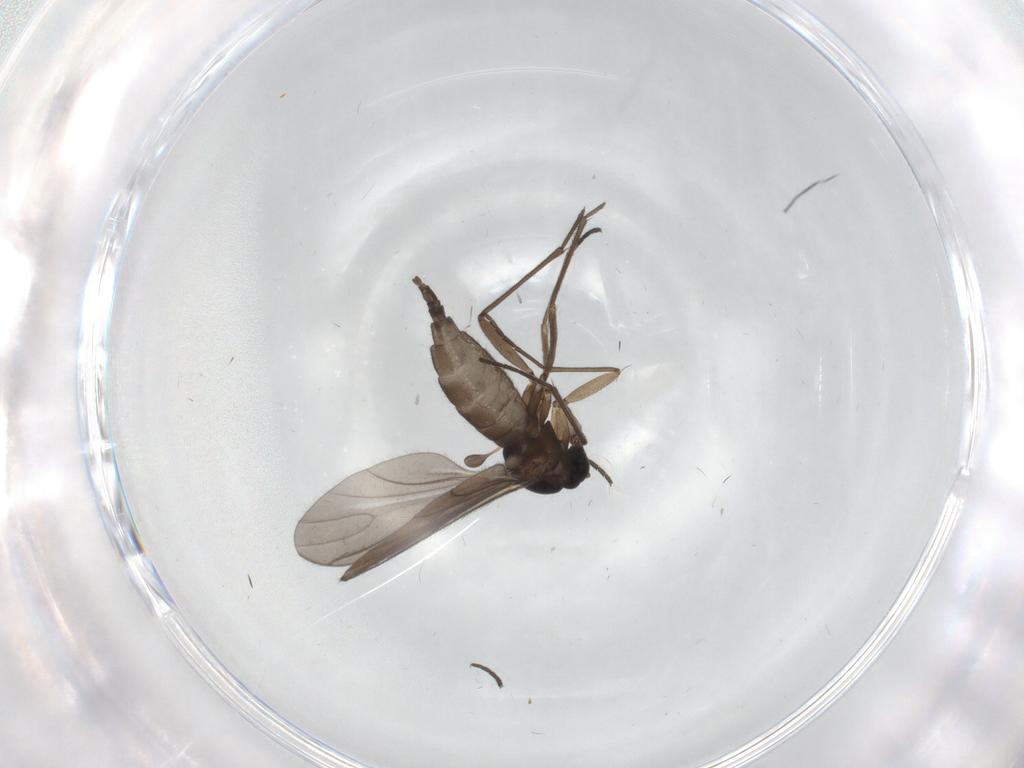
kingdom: Animalia
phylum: Arthropoda
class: Insecta
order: Diptera
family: Sciaridae
